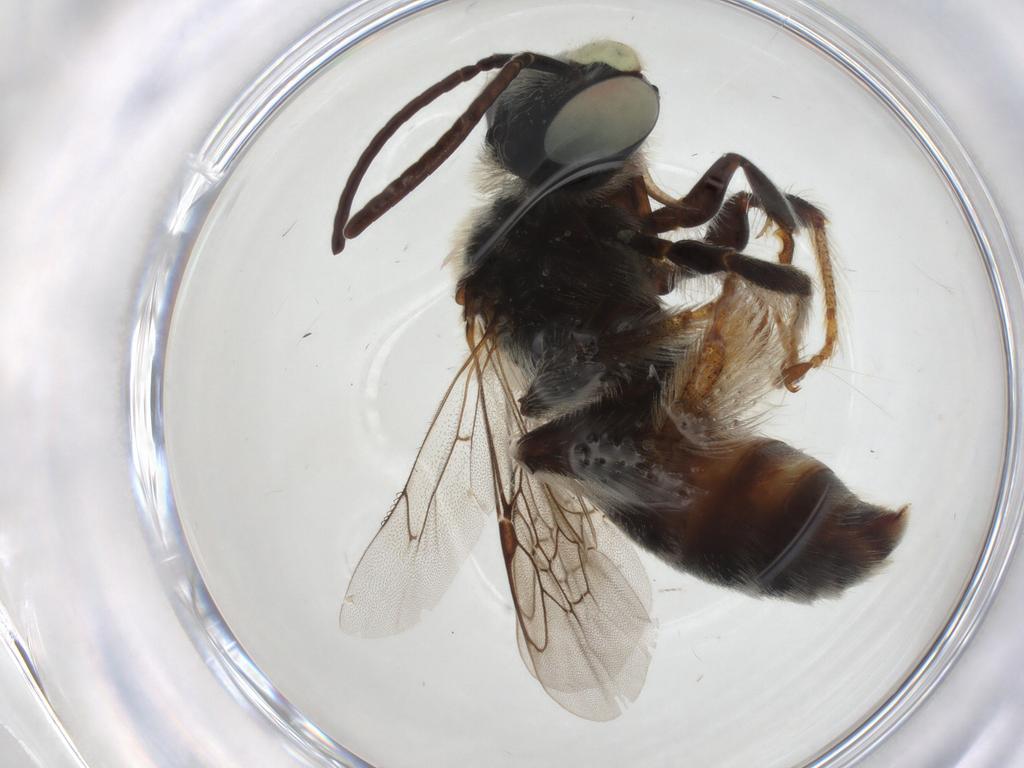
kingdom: Animalia
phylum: Arthropoda
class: Insecta
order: Hymenoptera
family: Apidae
